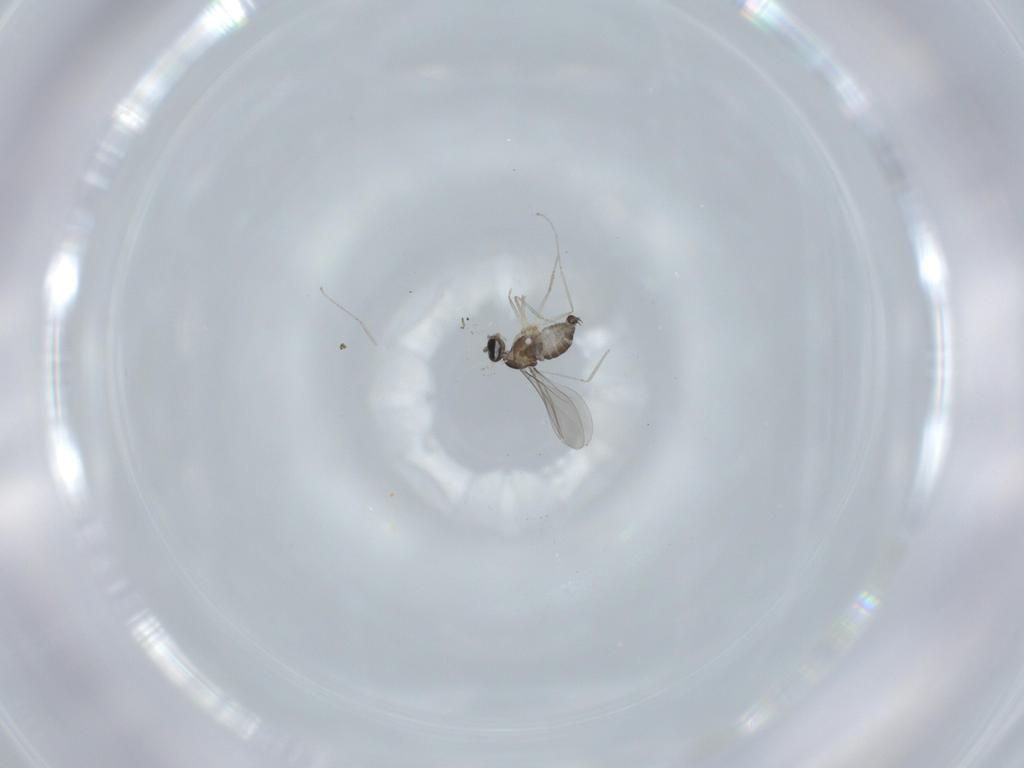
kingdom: Animalia
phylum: Arthropoda
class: Insecta
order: Diptera
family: Cecidomyiidae
